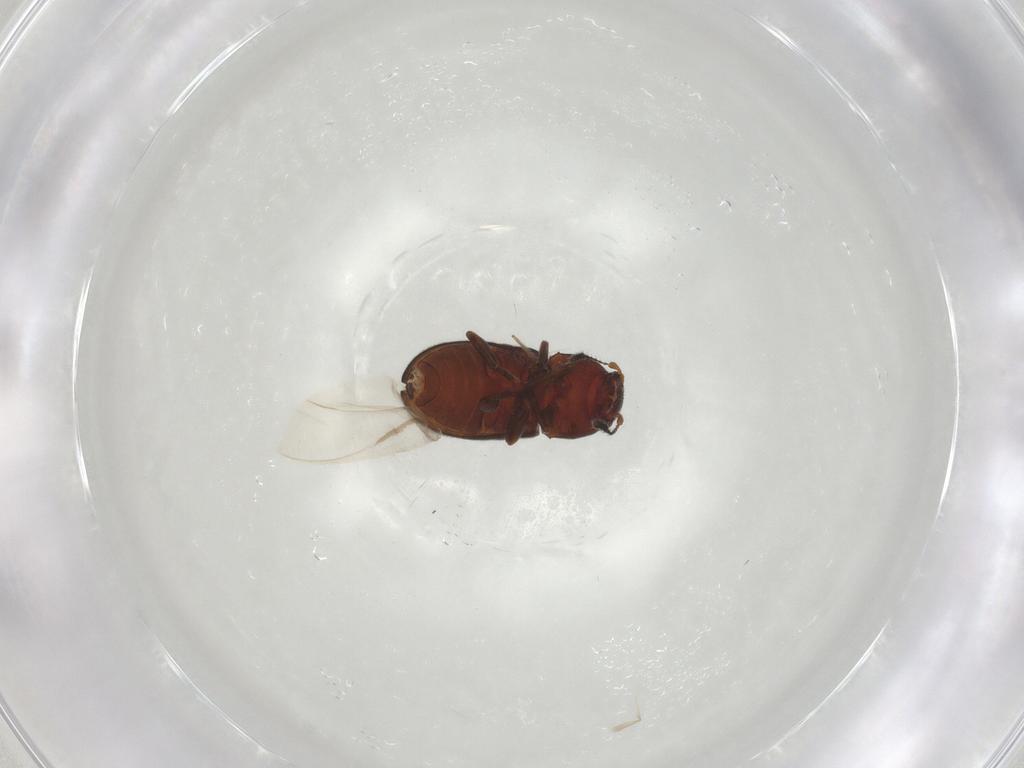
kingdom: Animalia
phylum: Arthropoda
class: Insecta
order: Coleoptera
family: Anthribidae
